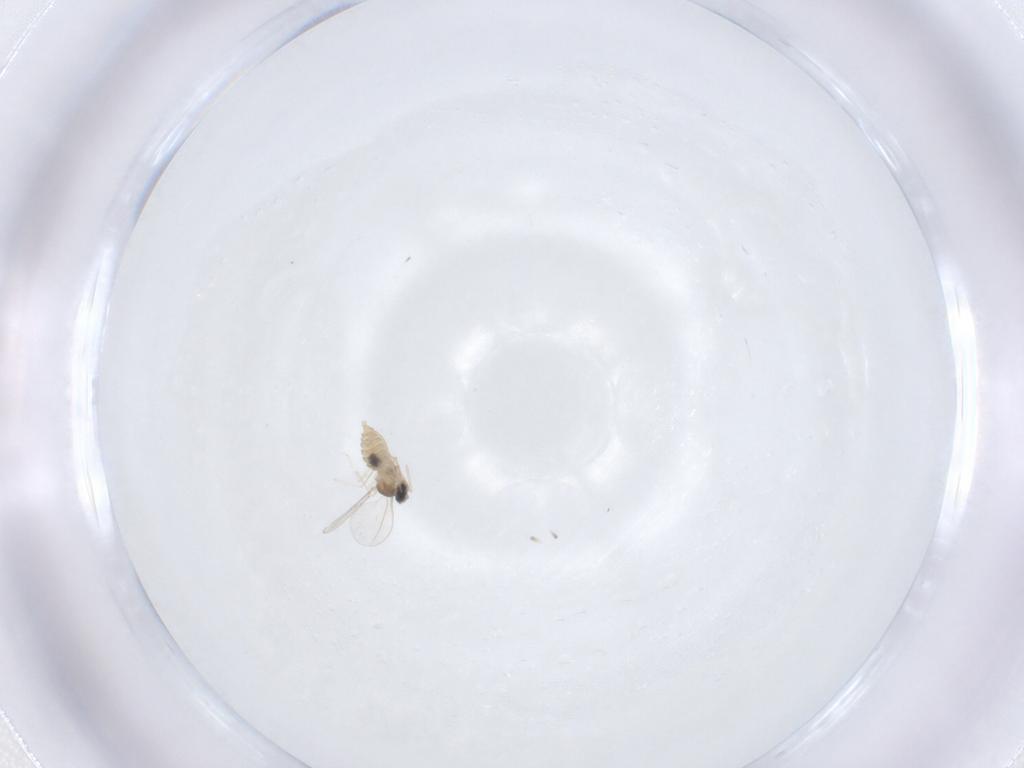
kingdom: Animalia
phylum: Arthropoda
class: Insecta
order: Diptera
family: Cecidomyiidae
